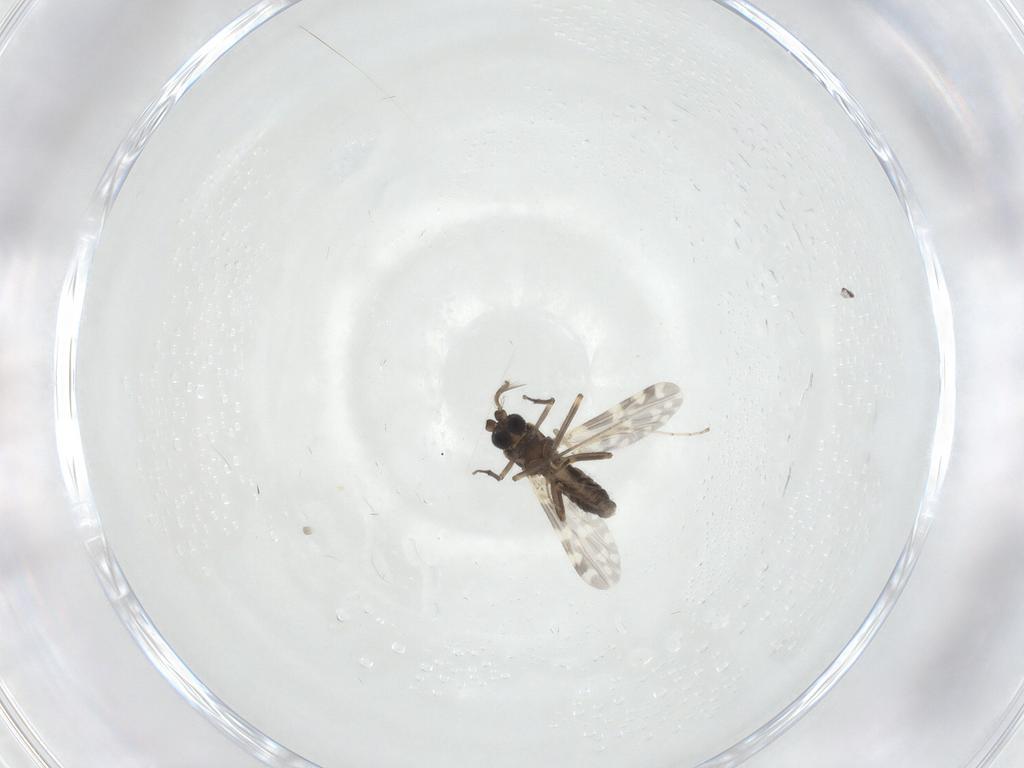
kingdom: Animalia
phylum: Arthropoda
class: Insecta
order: Diptera
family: Ceratopogonidae
